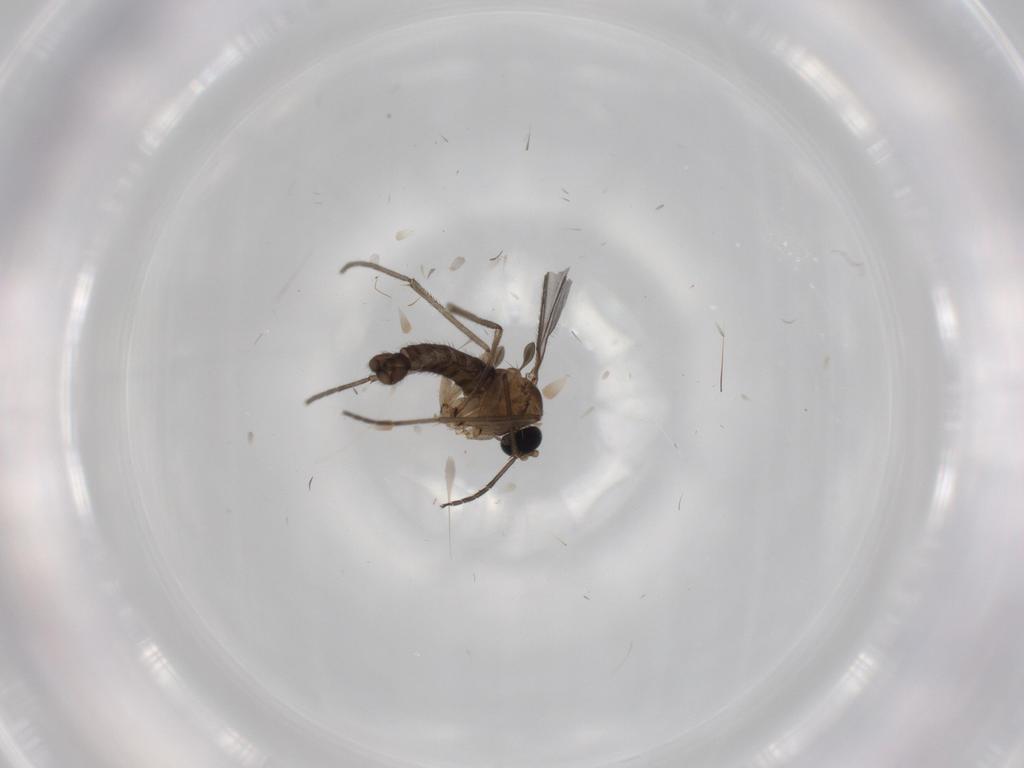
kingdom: Animalia
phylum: Arthropoda
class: Insecta
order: Diptera
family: Sciaridae
